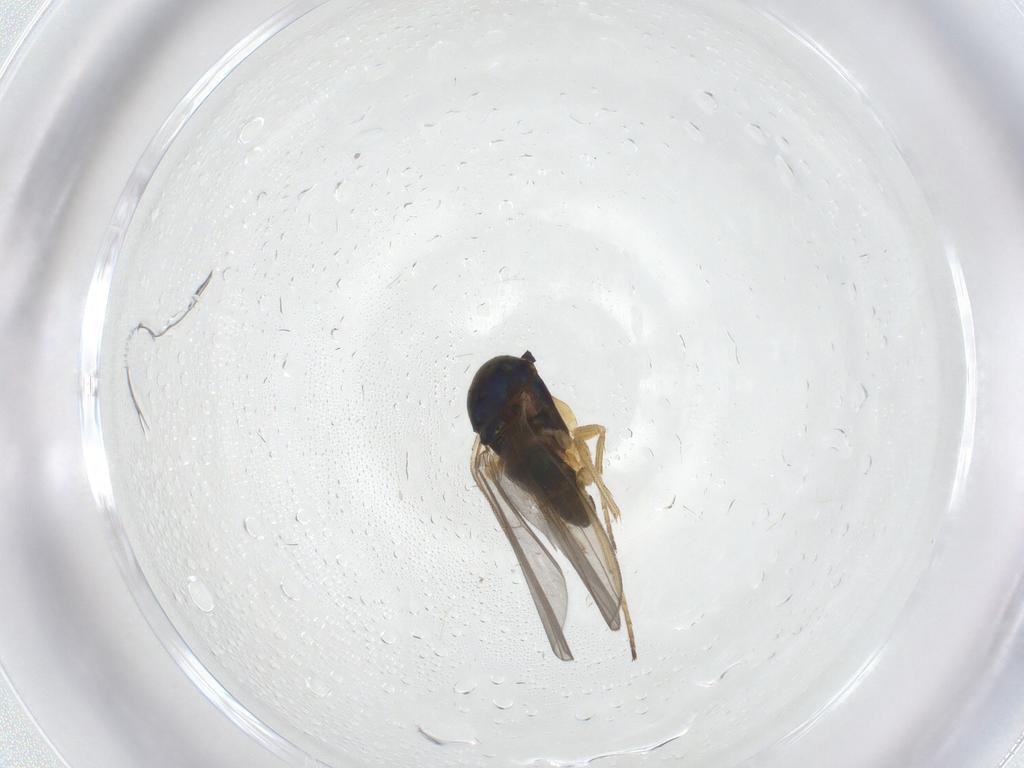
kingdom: Animalia
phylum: Arthropoda
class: Insecta
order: Diptera
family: Dolichopodidae
